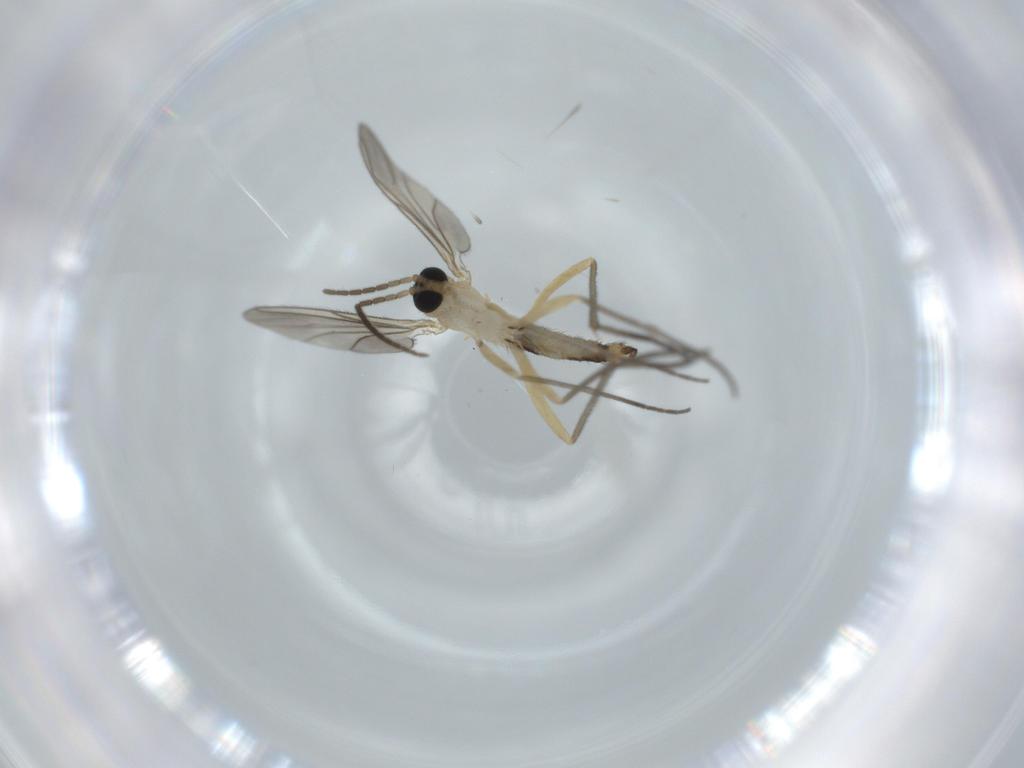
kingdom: Animalia
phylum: Arthropoda
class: Insecta
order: Diptera
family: Sciaridae
